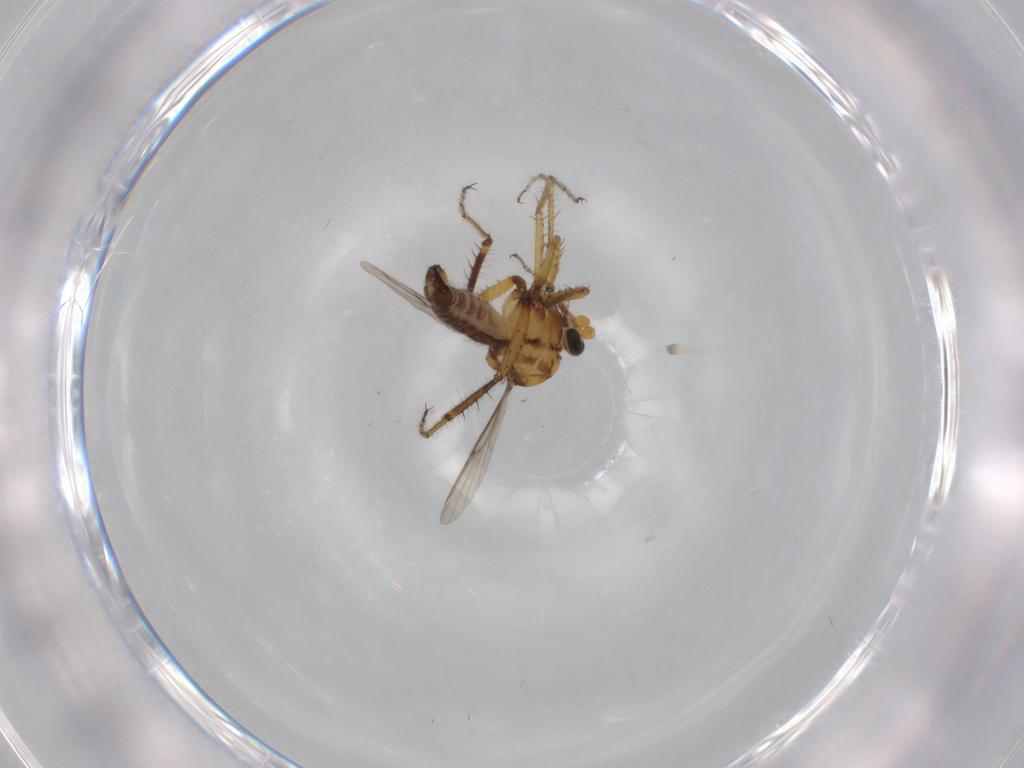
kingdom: Animalia
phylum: Arthropoda
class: Insecta
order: Diptera
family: Ceratopogonidae
